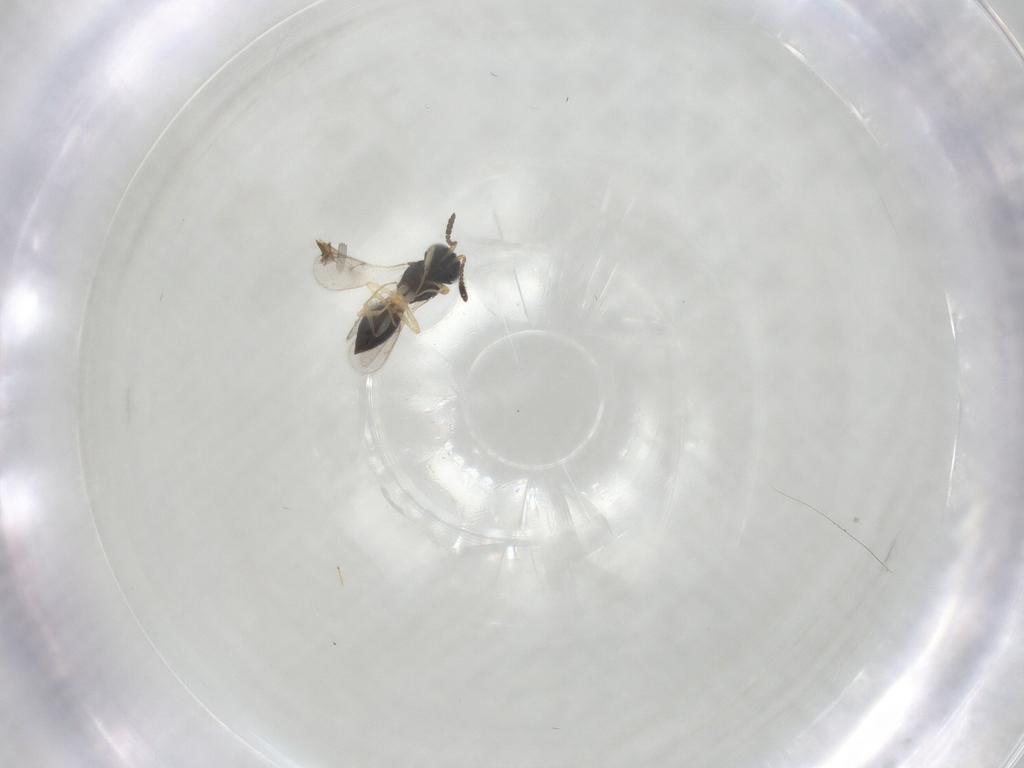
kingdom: Animalia
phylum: Arthropoda
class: Insecta
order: Hymenoptera
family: Scelionidae
